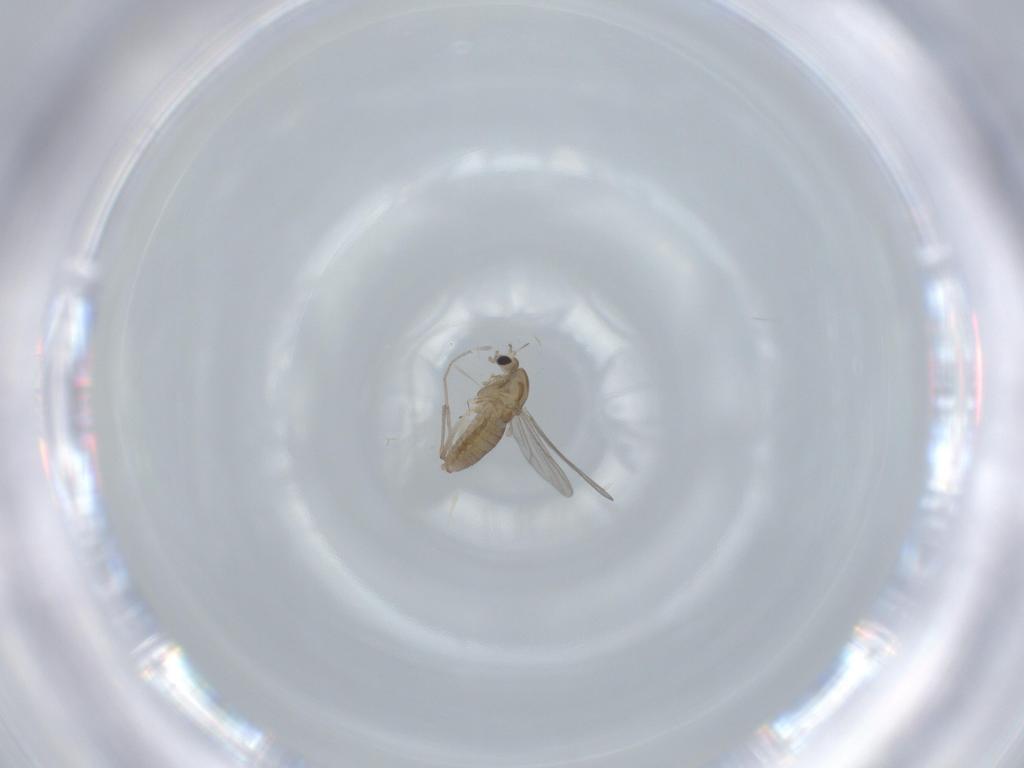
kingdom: Animalia
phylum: Arthropoda
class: Insecta
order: Diptera
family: Chironomidae
